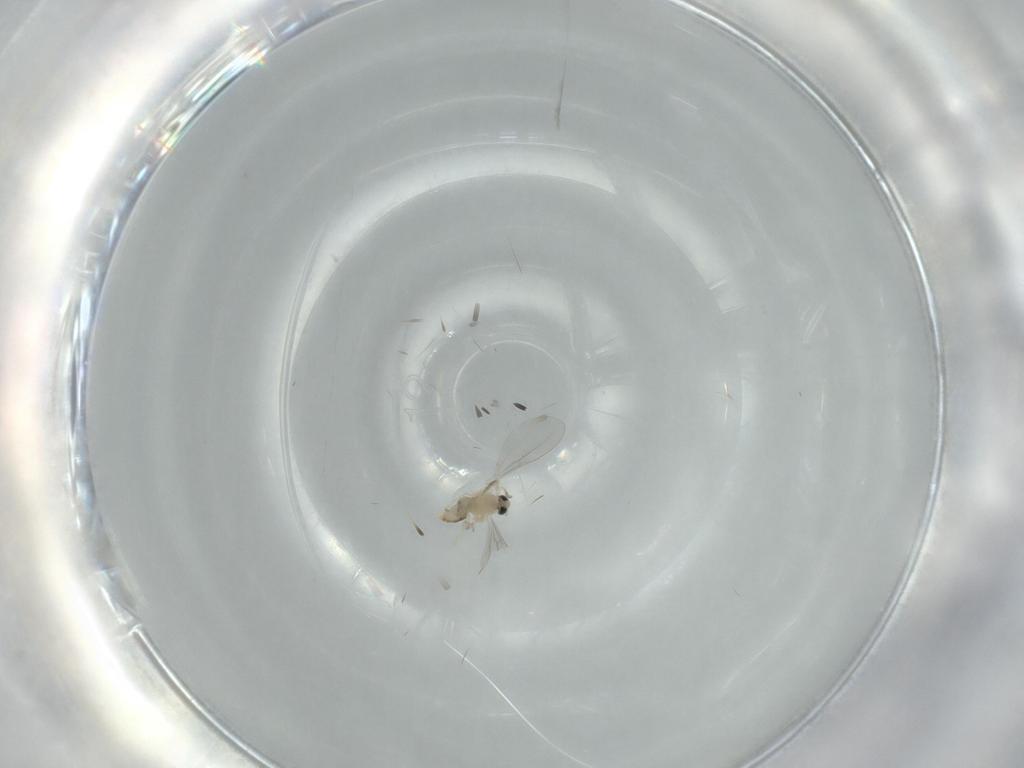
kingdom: Animalia
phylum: Arthropoda
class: Insecta
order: Diptera
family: Cecidomyiidae
